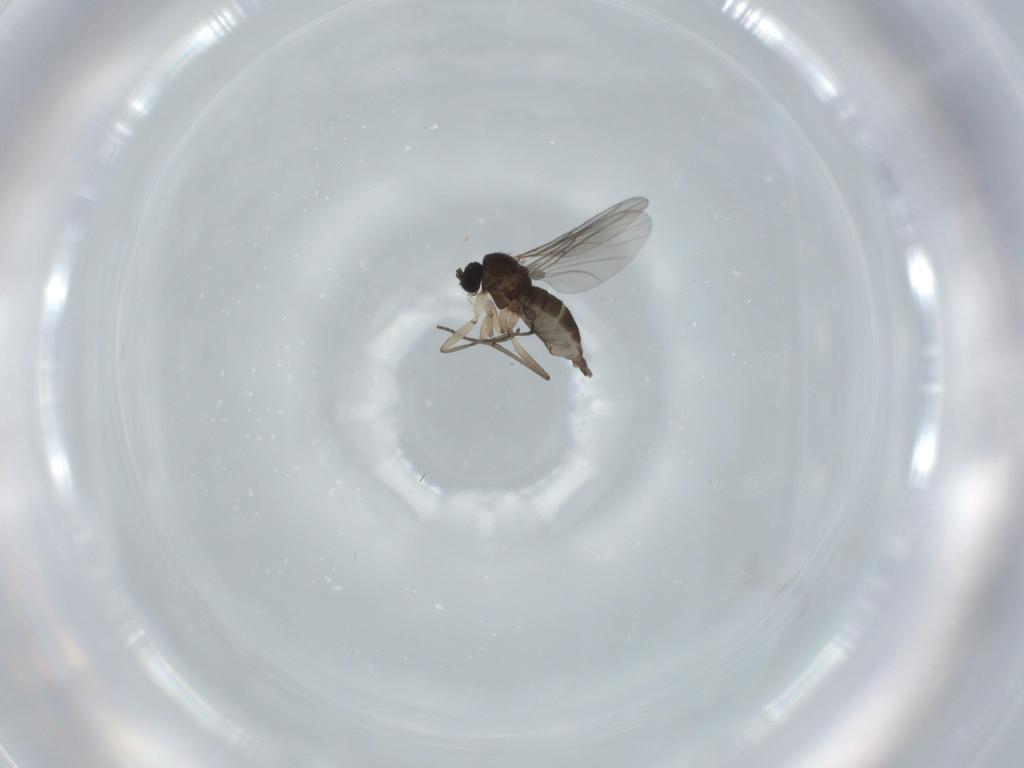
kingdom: Animalia
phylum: Arthropoda
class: Insecta
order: Diptera
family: Sciaridae
